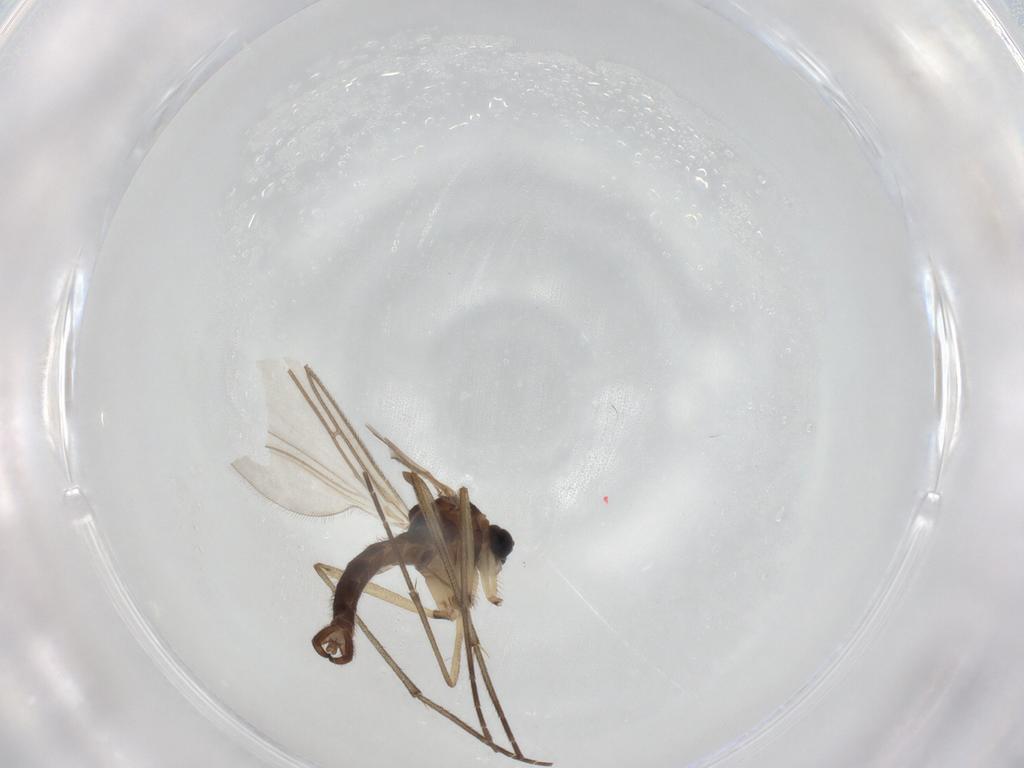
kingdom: Animalia
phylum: Arthropoda
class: Insecta
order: Diptera
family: Sciaridae
